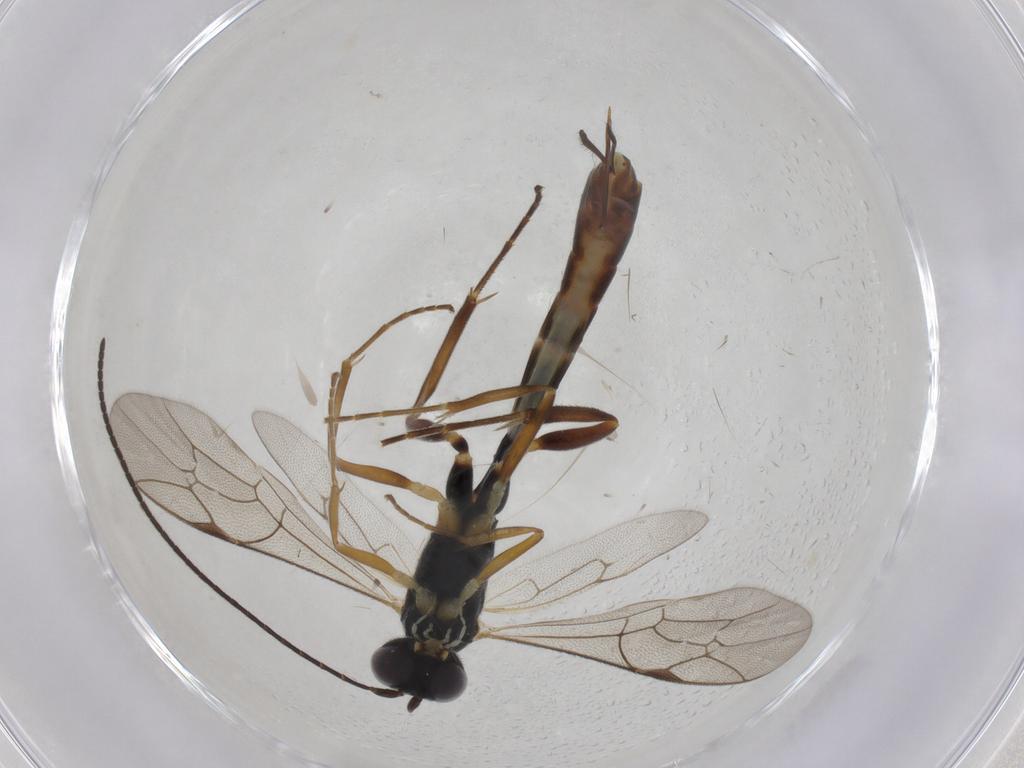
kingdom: Animalia
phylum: Arthropoda
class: Insecta
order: Hymenoptera
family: Ichneumonidae
